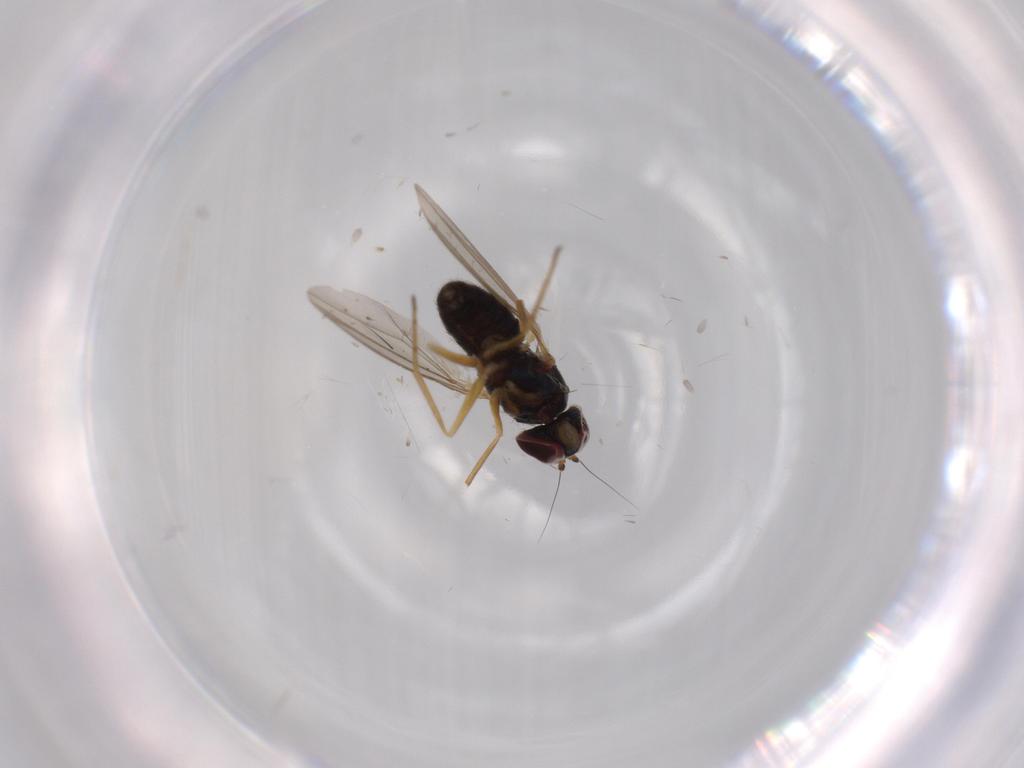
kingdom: Animalia
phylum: Arthropoda
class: Insecta
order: Diptera
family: Dolichopodidae
